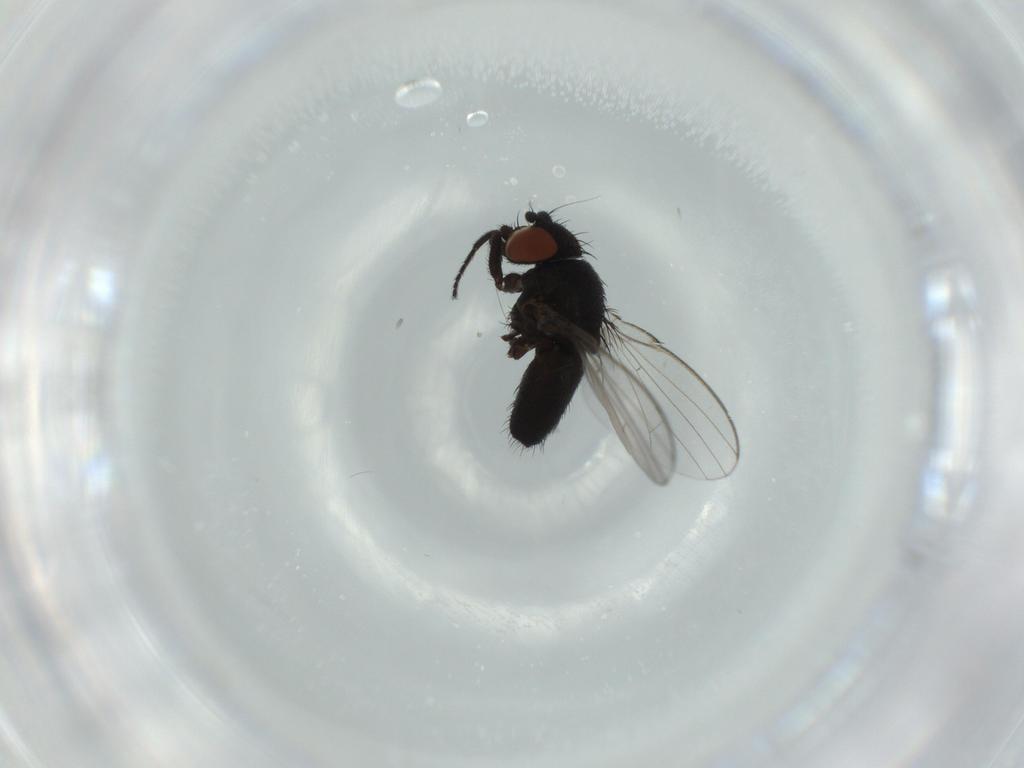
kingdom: Animalia
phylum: Arthropoda
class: Insecta
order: Diptera
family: Milichiidae
